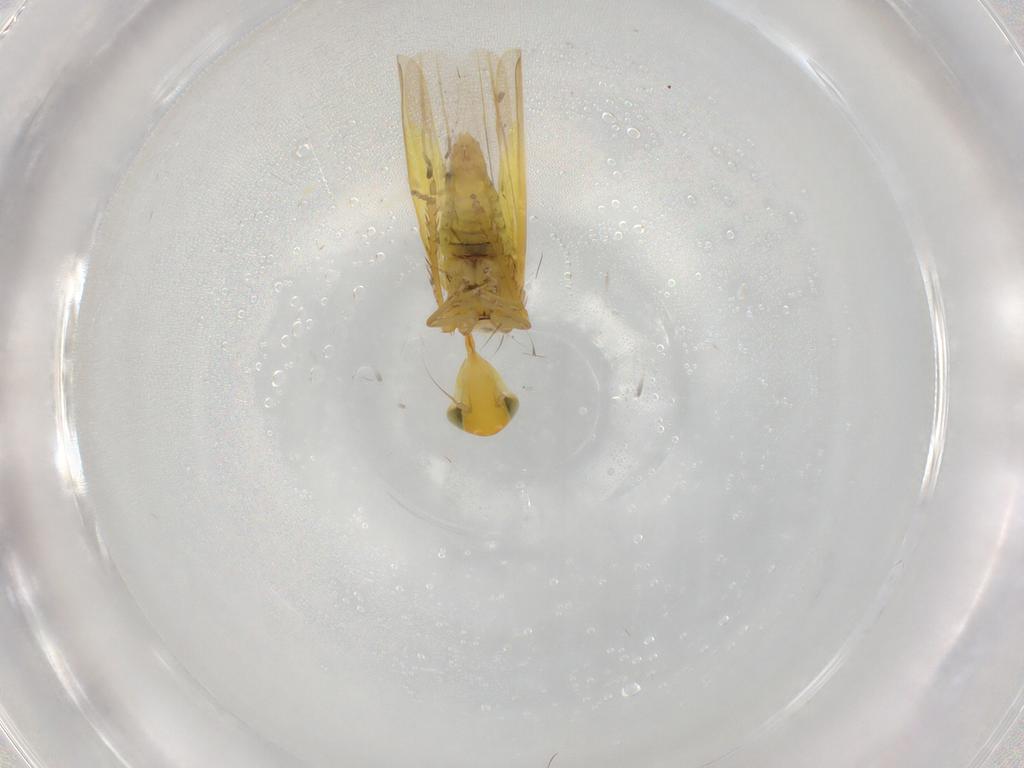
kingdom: Animalia
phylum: Arthropoda
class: Insecta
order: Hemiptera
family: Cicadellidae
